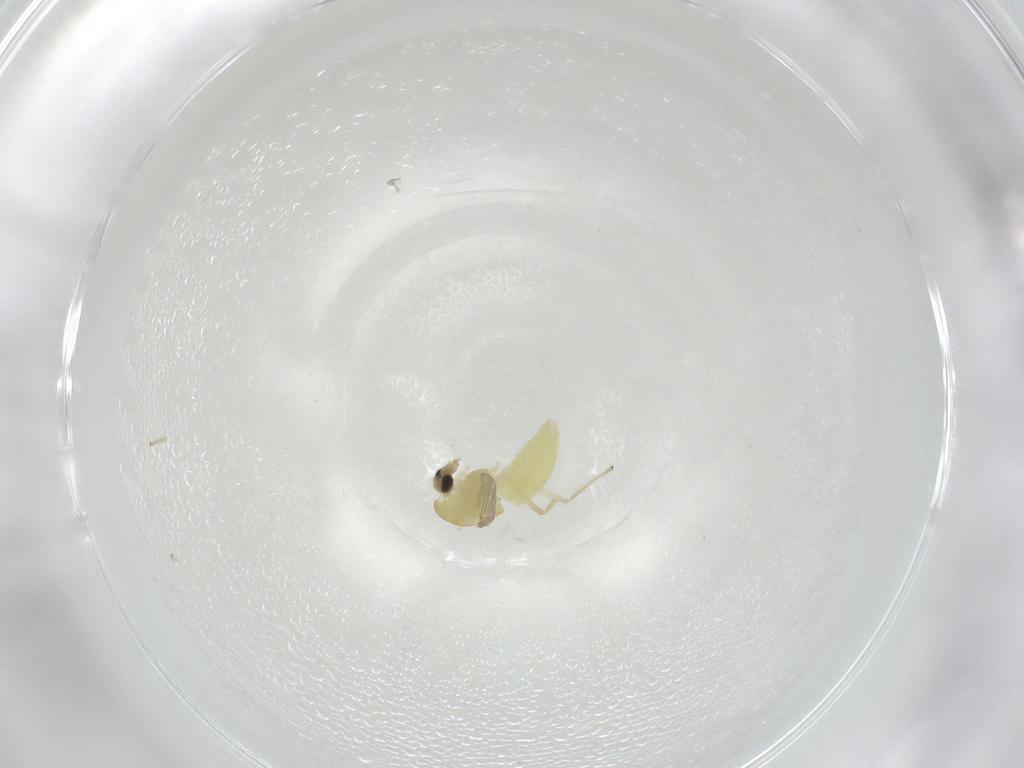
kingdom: Animalia
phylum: Arthropoda
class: Insecta
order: Diptera
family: Chironomidae
